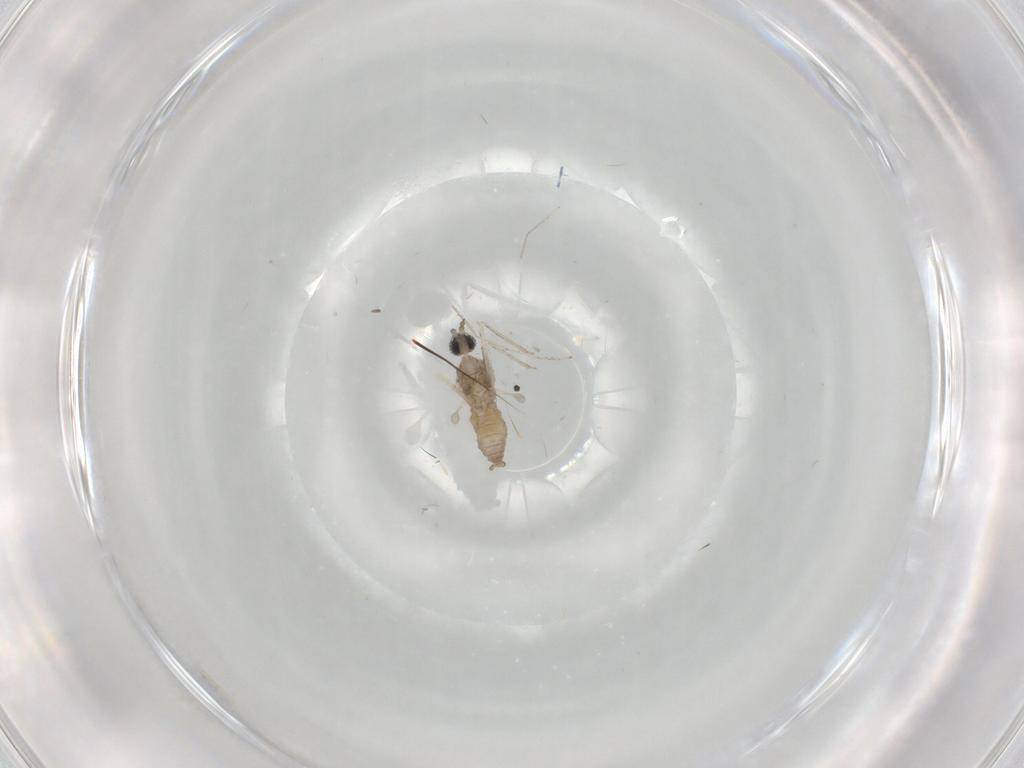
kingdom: Animalia
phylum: Arthropoda
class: Insecta
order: Diptera
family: Cecidomyiidae
